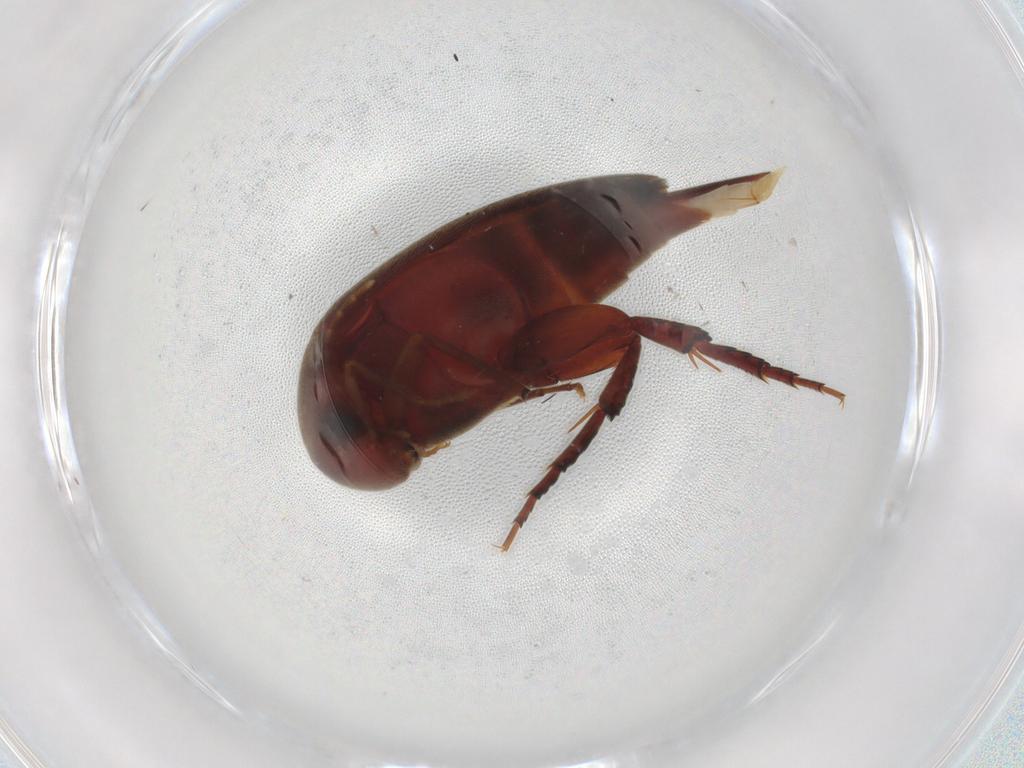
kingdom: Animalia
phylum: Arthropoda
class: Insecta
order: Coleoptera
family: Mordellidae
